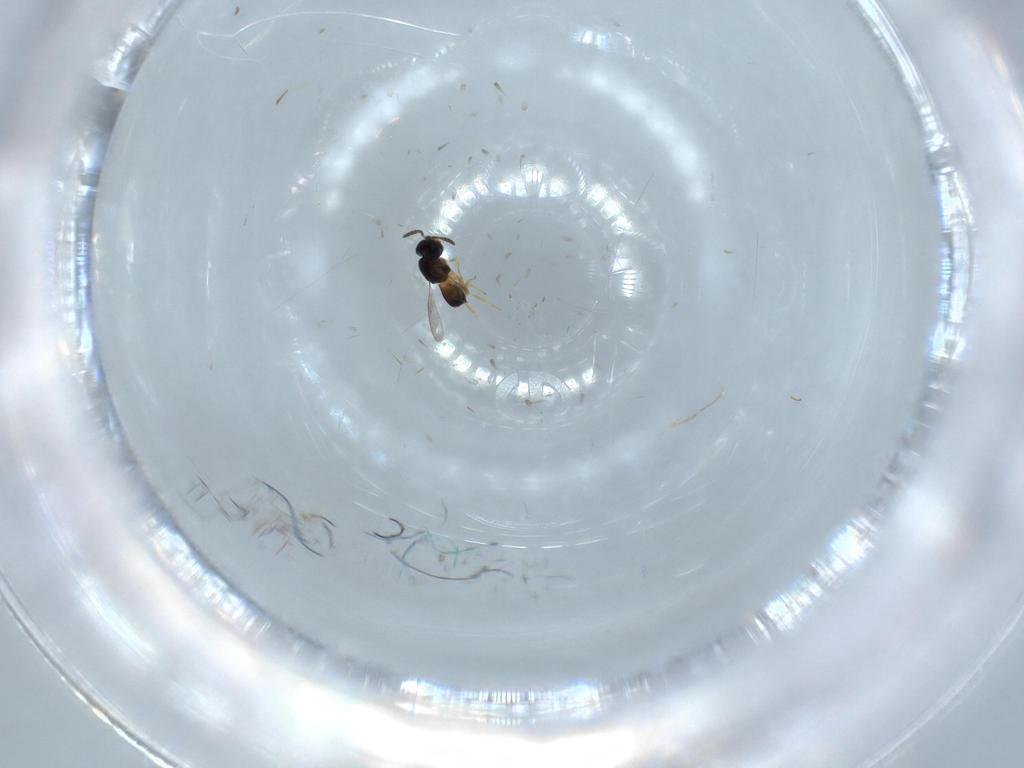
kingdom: Animalia
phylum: Arthropoda
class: Insecta
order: Hymenoptera
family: Scelionidae
